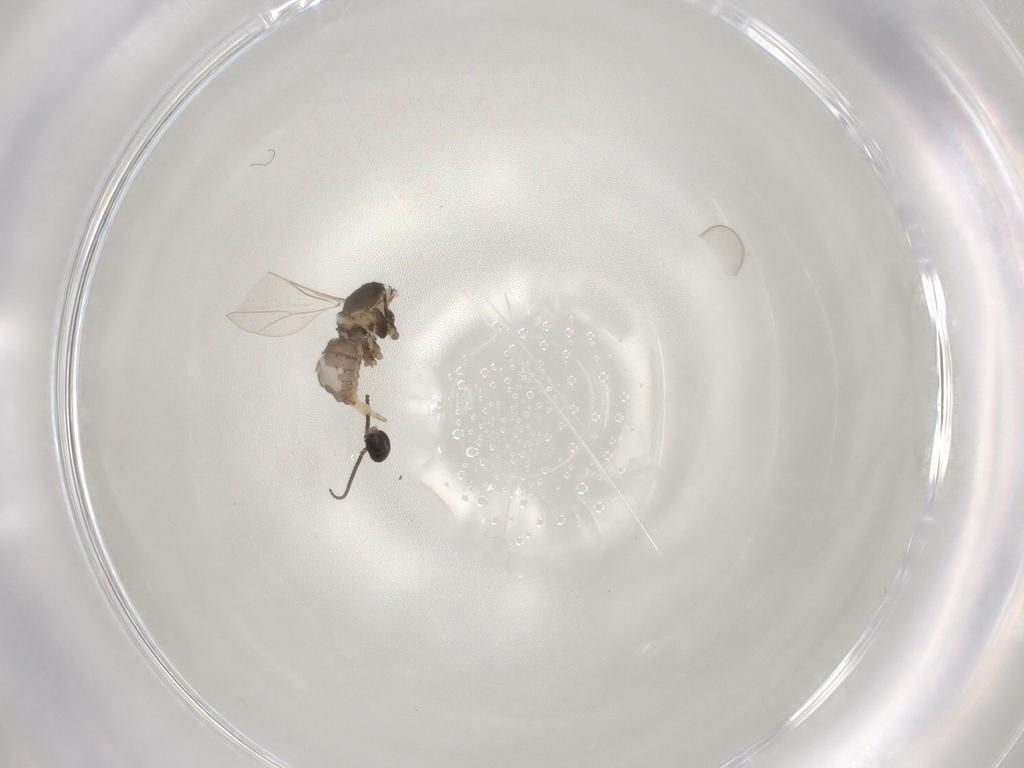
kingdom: Animalia
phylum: Arthropoda
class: Insecta
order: Diptera
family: Cecidomyiidae
